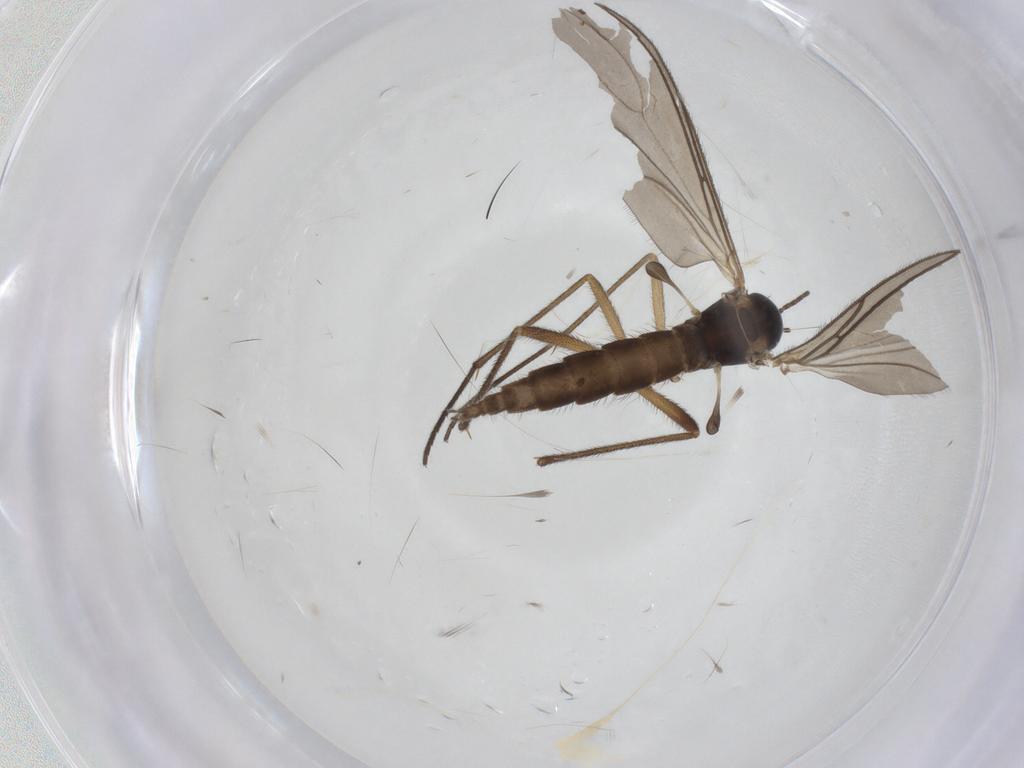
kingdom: Animalia
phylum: Arthropoda
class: Insecta
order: Diptera
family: Sciaridae
